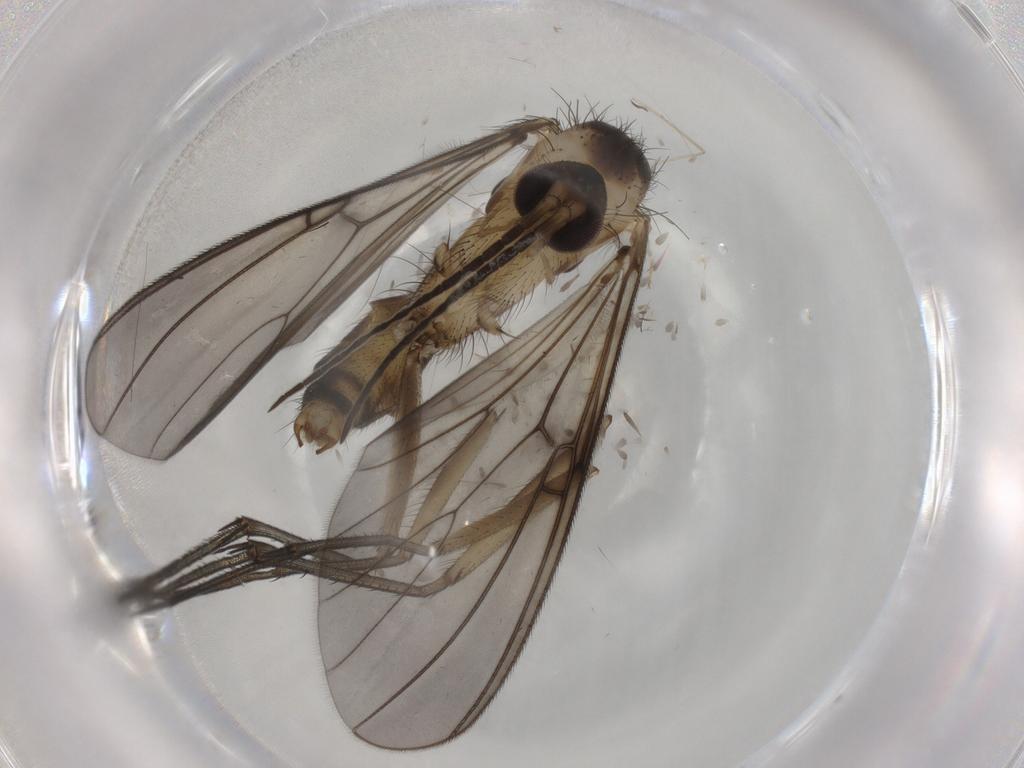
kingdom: Animalia
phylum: Arthropoda
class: Insecta
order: Diptera
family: Mycetophilidae
